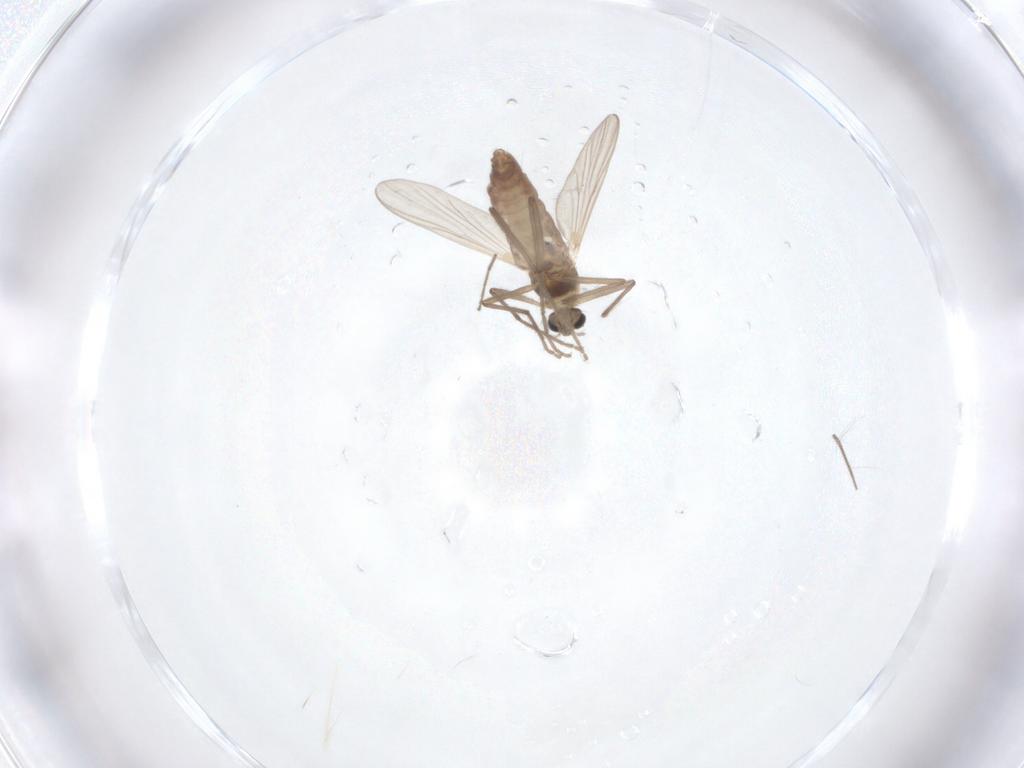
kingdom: Animalia
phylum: Arthropoda
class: Insecta
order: Diptera
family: Chironomidae
